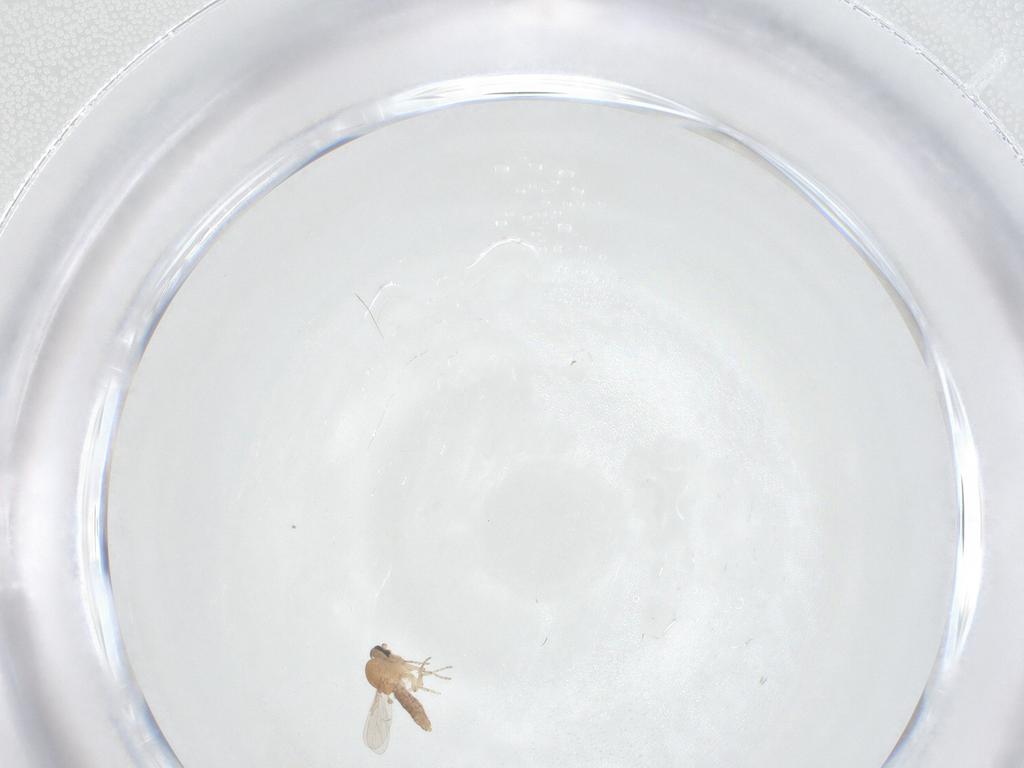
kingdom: Animalia
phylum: Arthropoda
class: Insecta
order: Diptera
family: Ceratopogonidae
